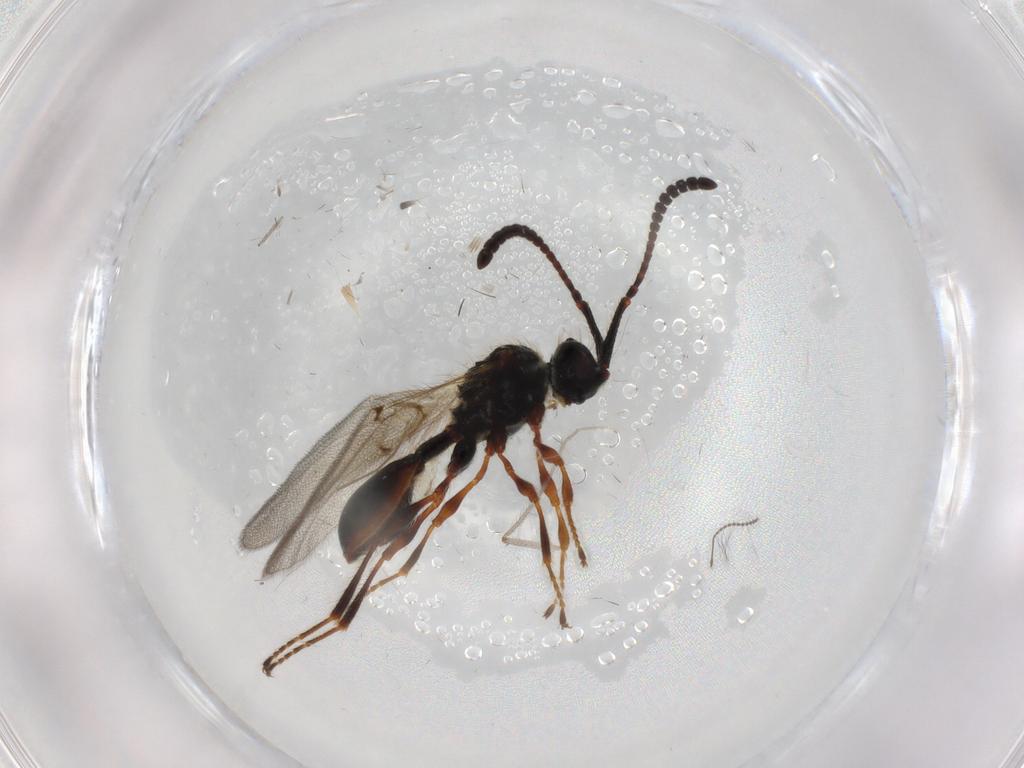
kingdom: Animalia
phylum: Arthropoda
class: Insecta
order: Hymenoptera
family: Diapriidae
